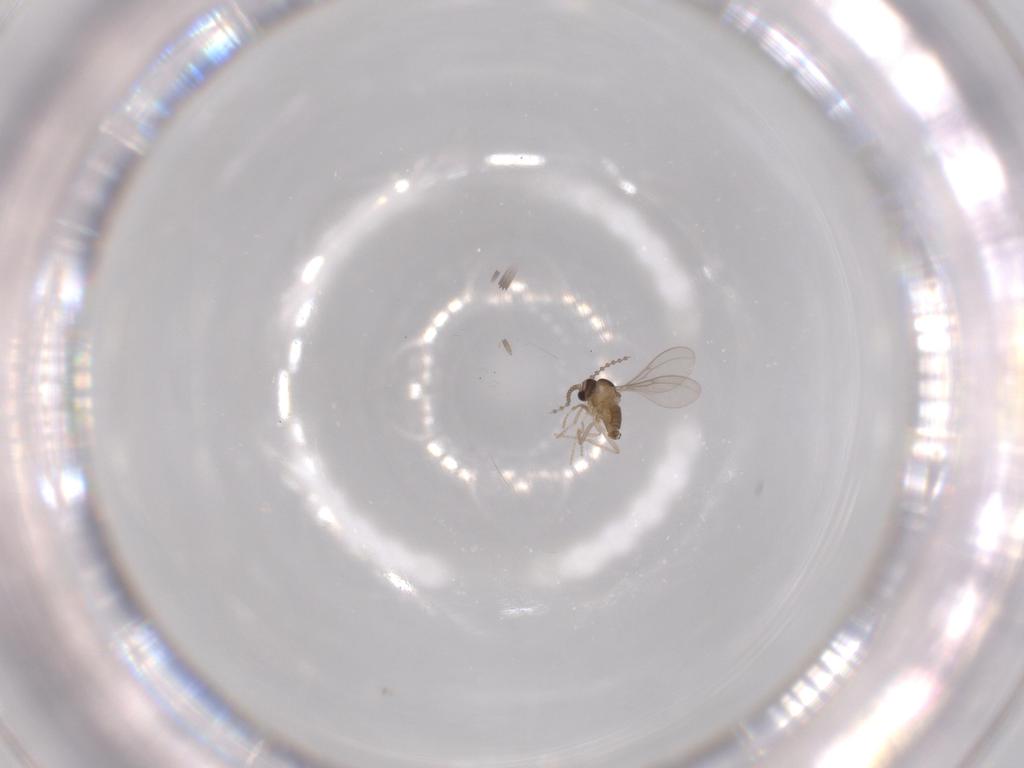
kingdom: Animalia
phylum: Arthropoda
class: Insecta
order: Diptera
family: Cecidomyiidae
